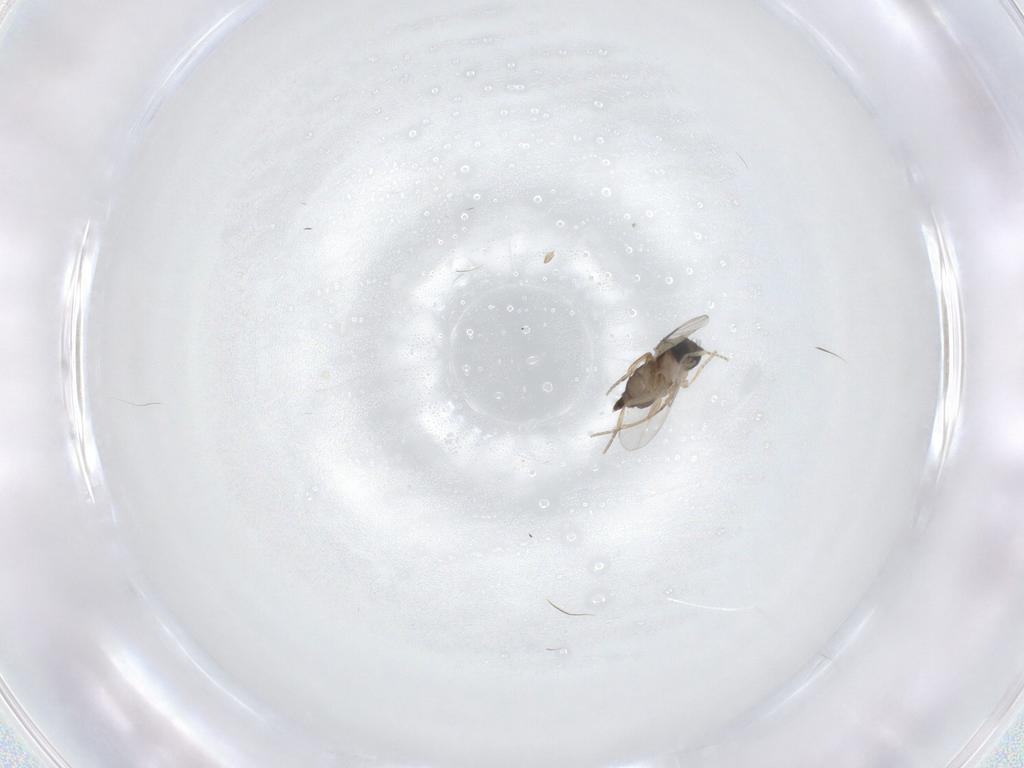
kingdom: Animalia
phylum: Arthropoda
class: Insecta
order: Diptera
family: Phoridae
